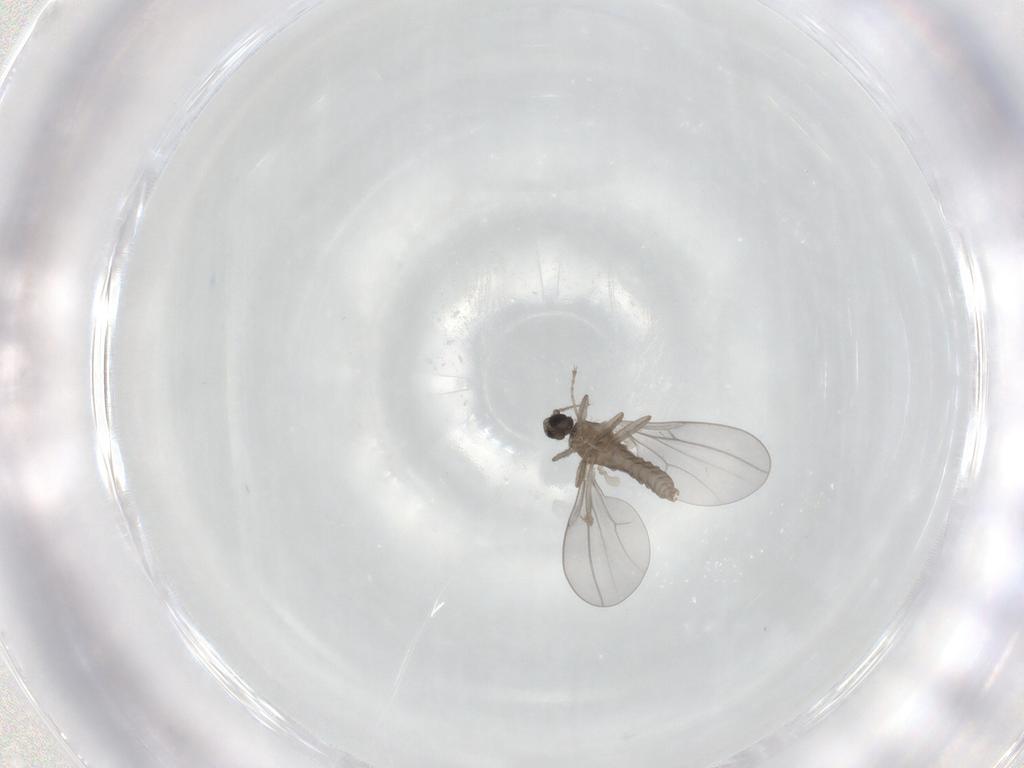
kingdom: Animalia
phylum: Arthropoda
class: Insecta
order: Diptera
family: Cecidomyiidae
